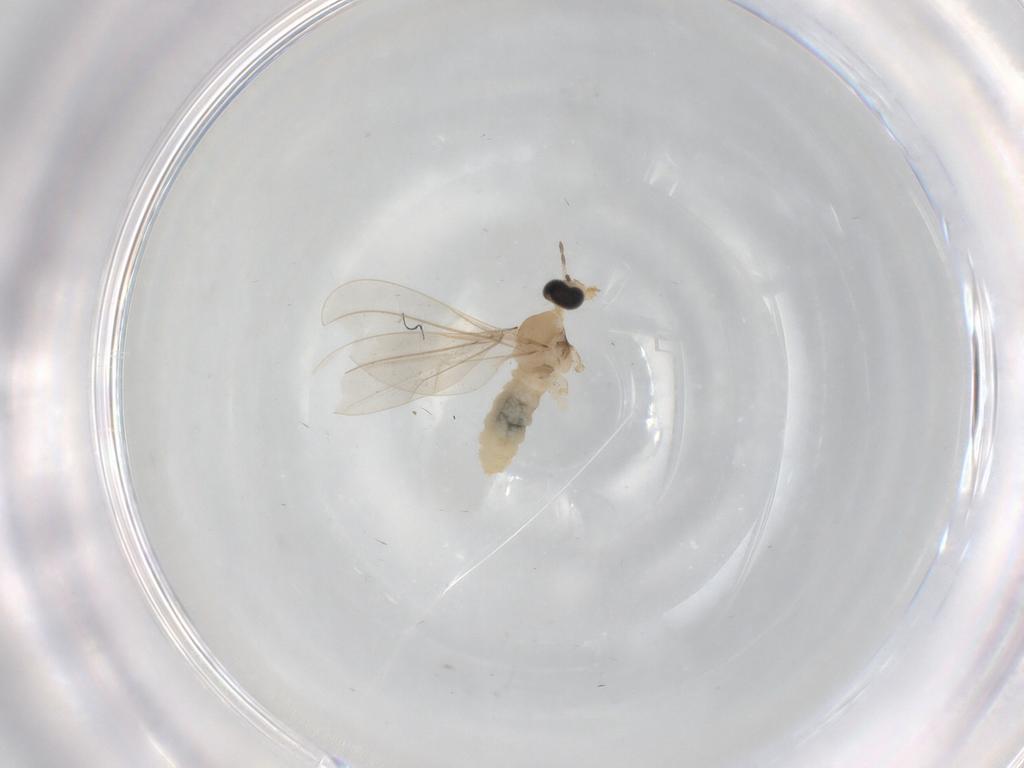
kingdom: Animalia
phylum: Arthropoda
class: Insecta
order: Diptera
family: Cecidomyiidae
